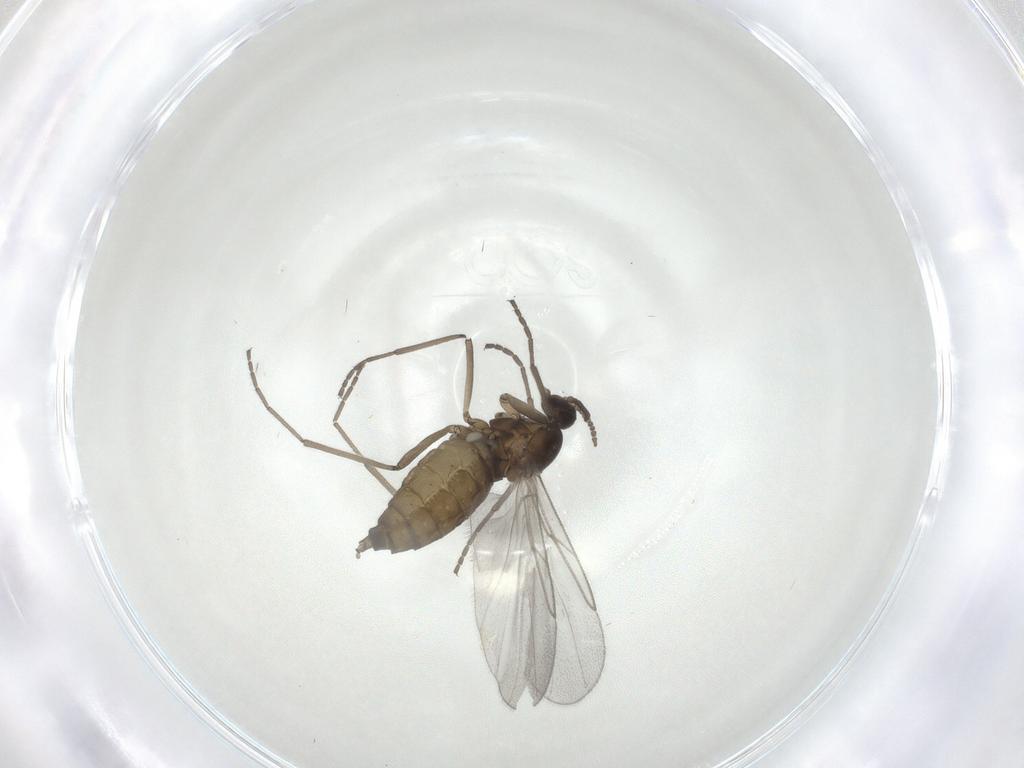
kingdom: Animalia
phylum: Arthropoda
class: Insecta
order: Diptera
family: Cecidomyiidae
